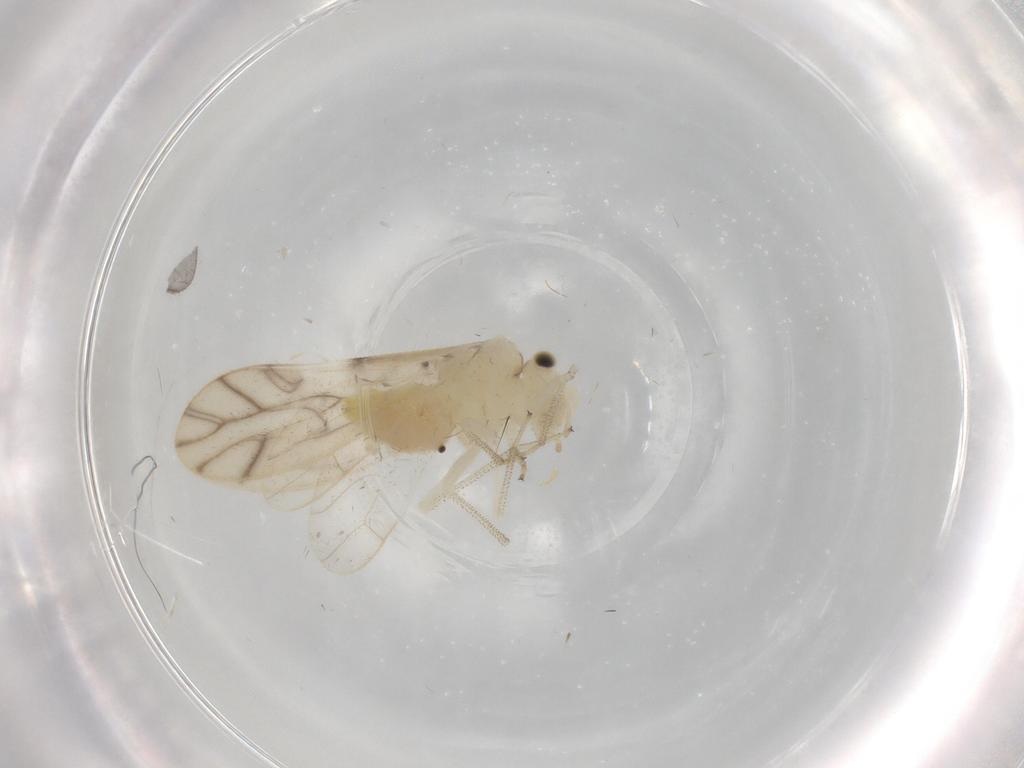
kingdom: Animalia
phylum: Arthropoda
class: Insecta
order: Psocodea
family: Caeciliusidae
